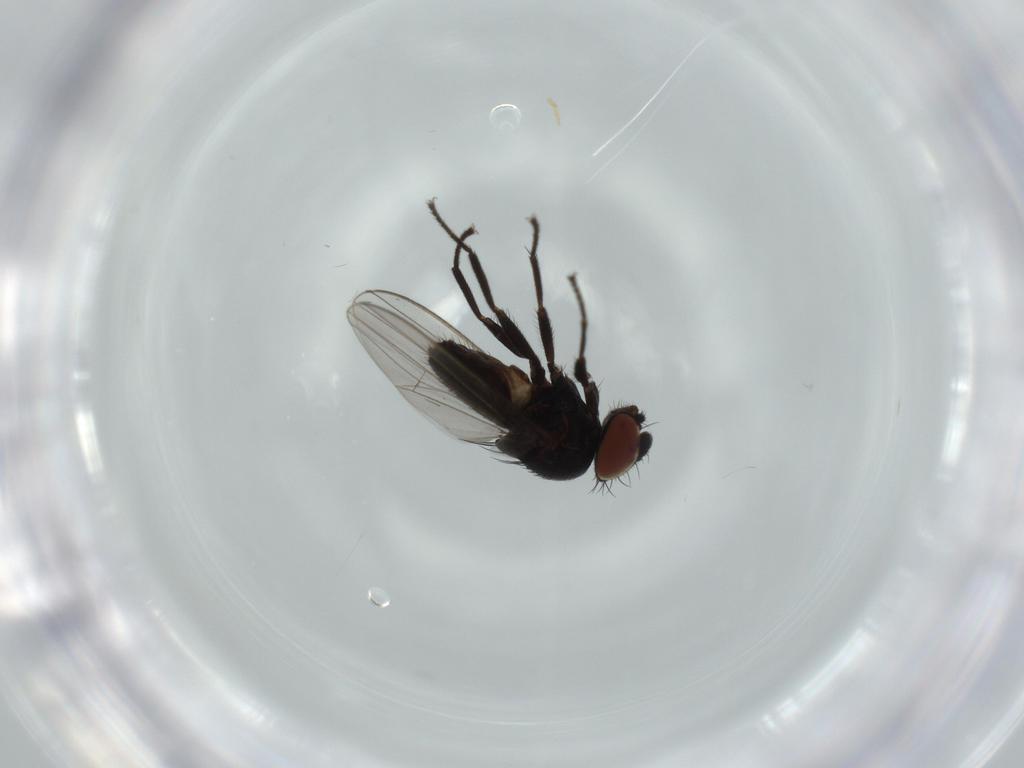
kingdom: Animalia
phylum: Arthropoda
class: Insecta
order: Diptera
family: Milichiidae
